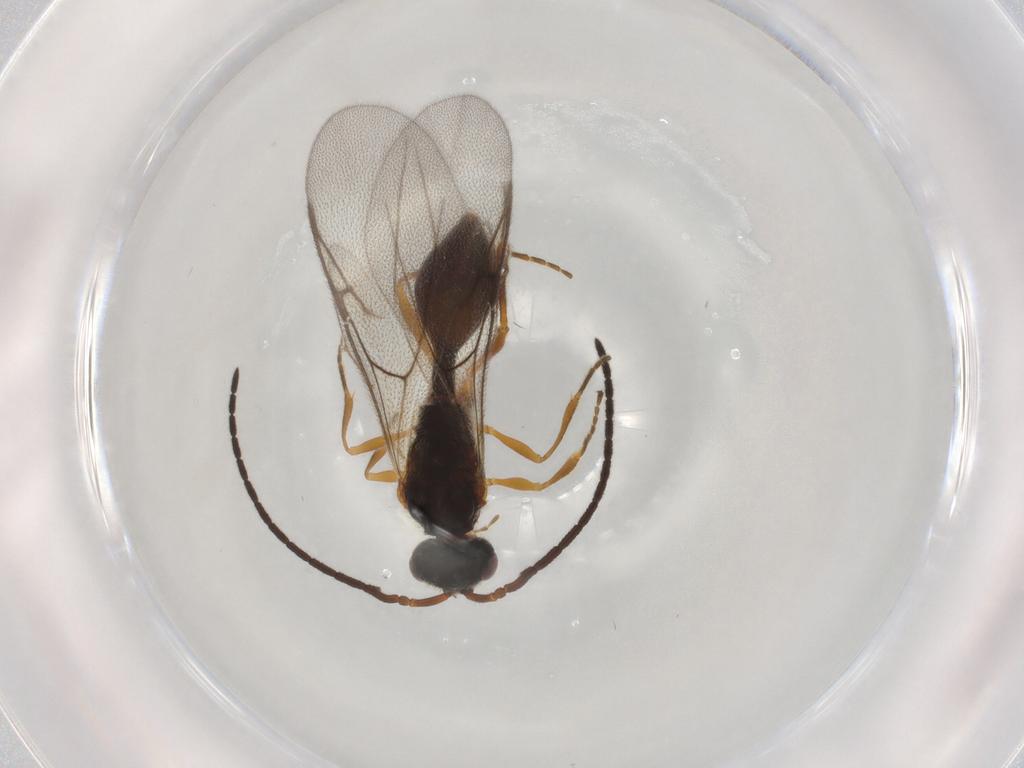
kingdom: Animalia
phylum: Arthropoda
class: Insecta
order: Hymenoptera
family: Diapriidae
